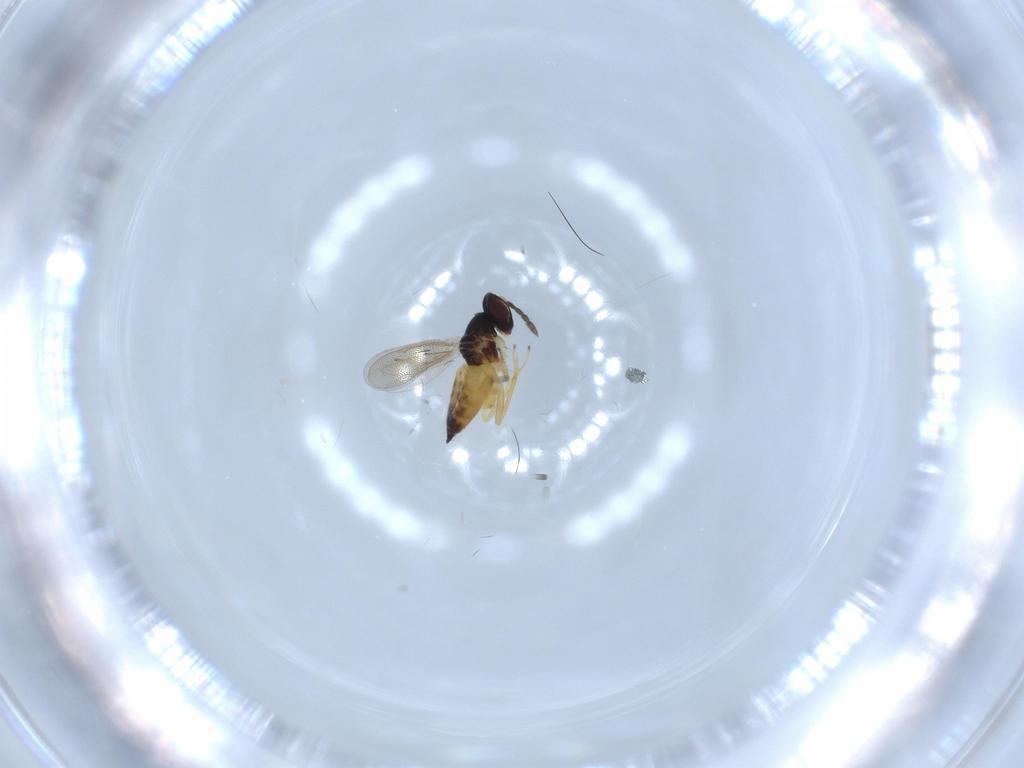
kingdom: Animalia
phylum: Arthropoda
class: Insecta
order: Hymenoptera
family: Eulophidae
